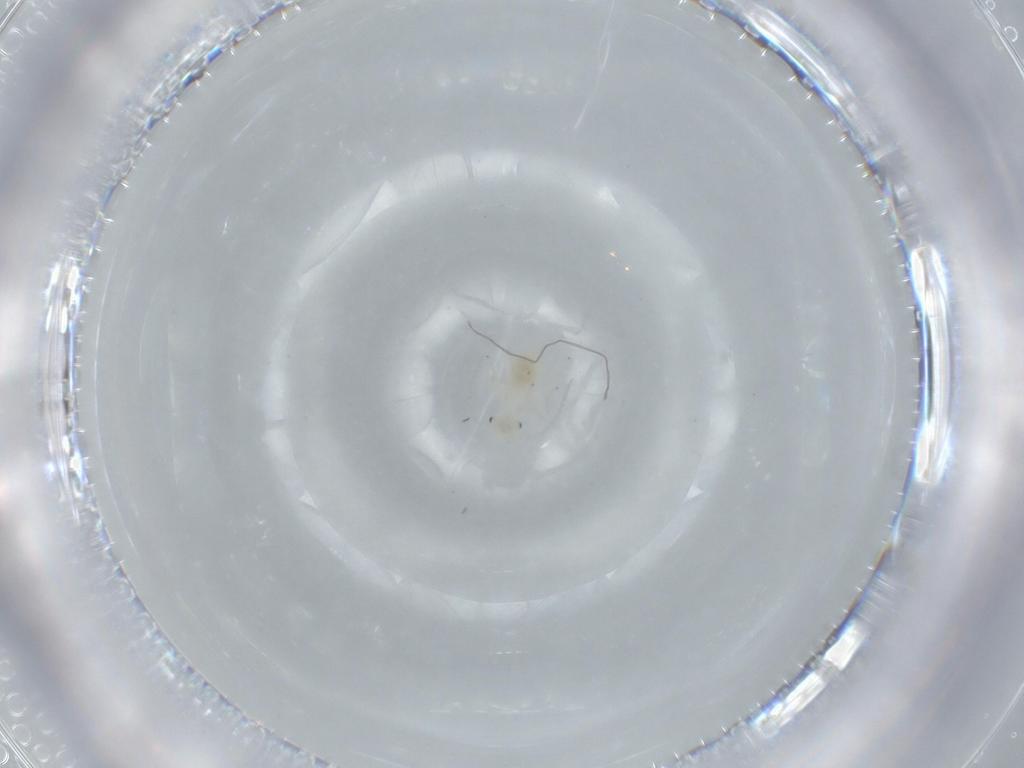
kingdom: Animalia
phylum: Arthropoda
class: Insecta
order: Psocodea
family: Caeciliusidae
